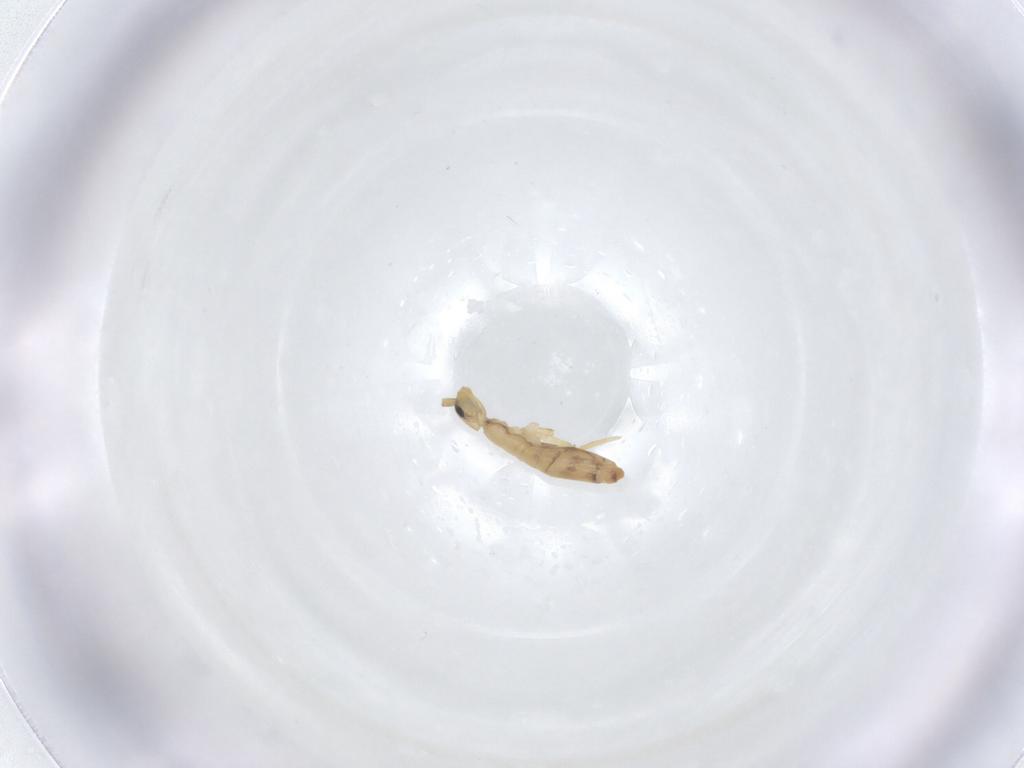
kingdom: Animalia
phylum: Arthropoda
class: Collembola
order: Entomobryomorpha
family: Entomobryidae
